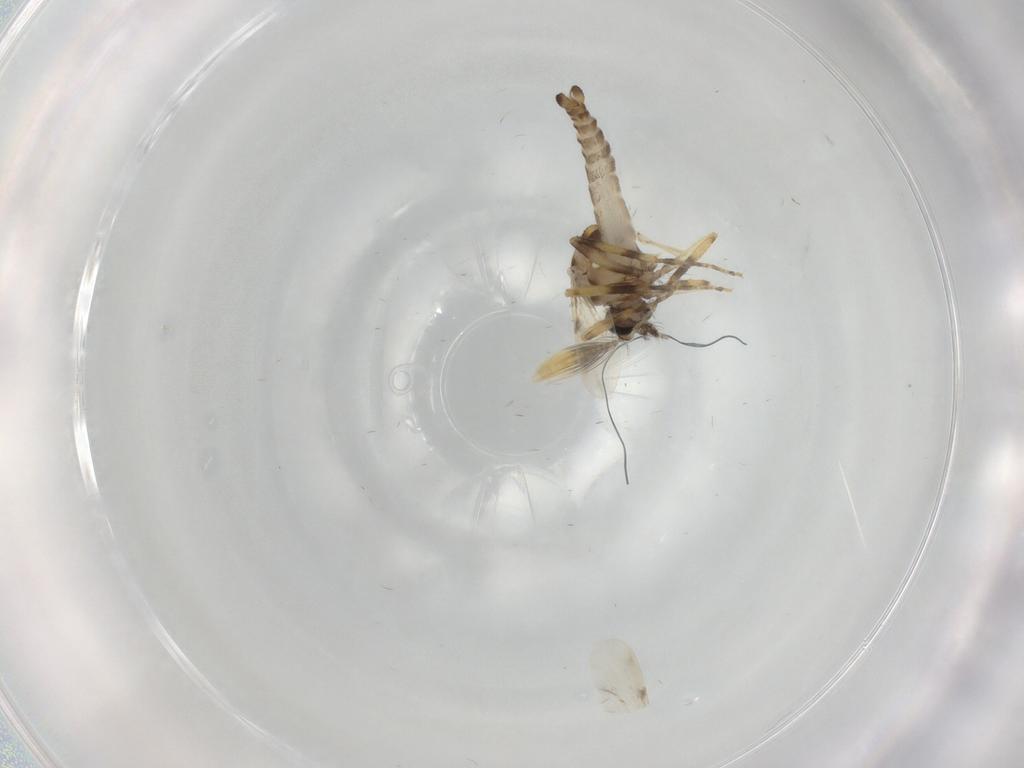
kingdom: Animalia
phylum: Arthropoda
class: Insecta
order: Diptera
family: Ceratopogonidae
